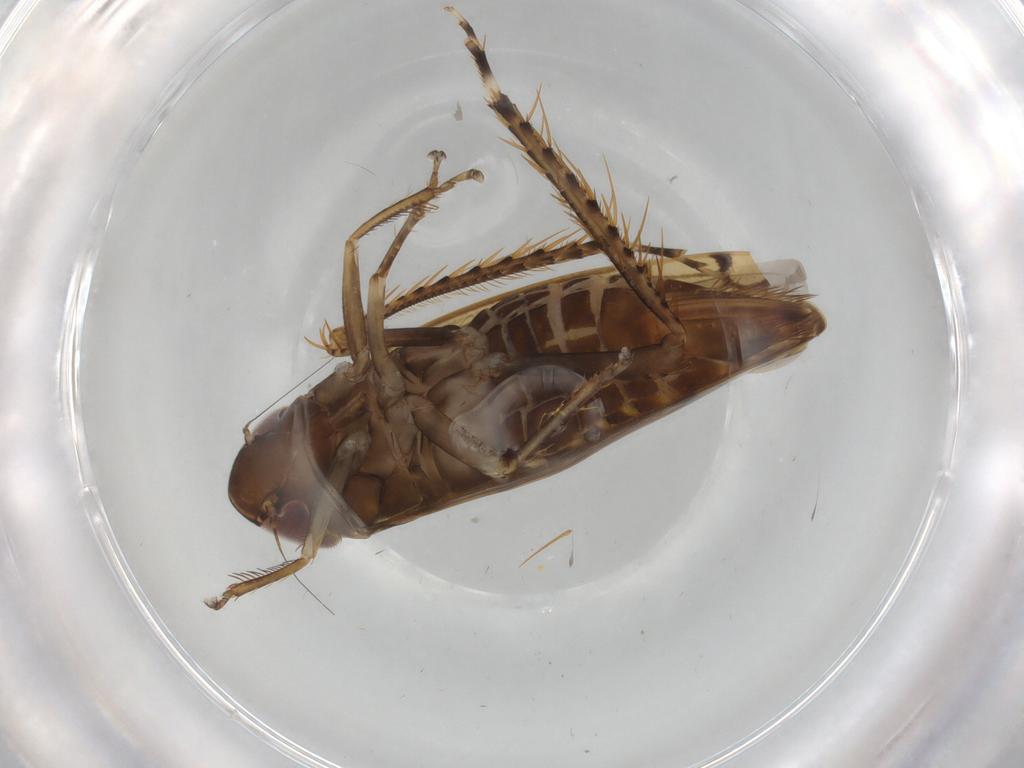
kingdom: Animalia
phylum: Arthropoda
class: Insecta
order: Hemiptera
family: Cicadellidae
